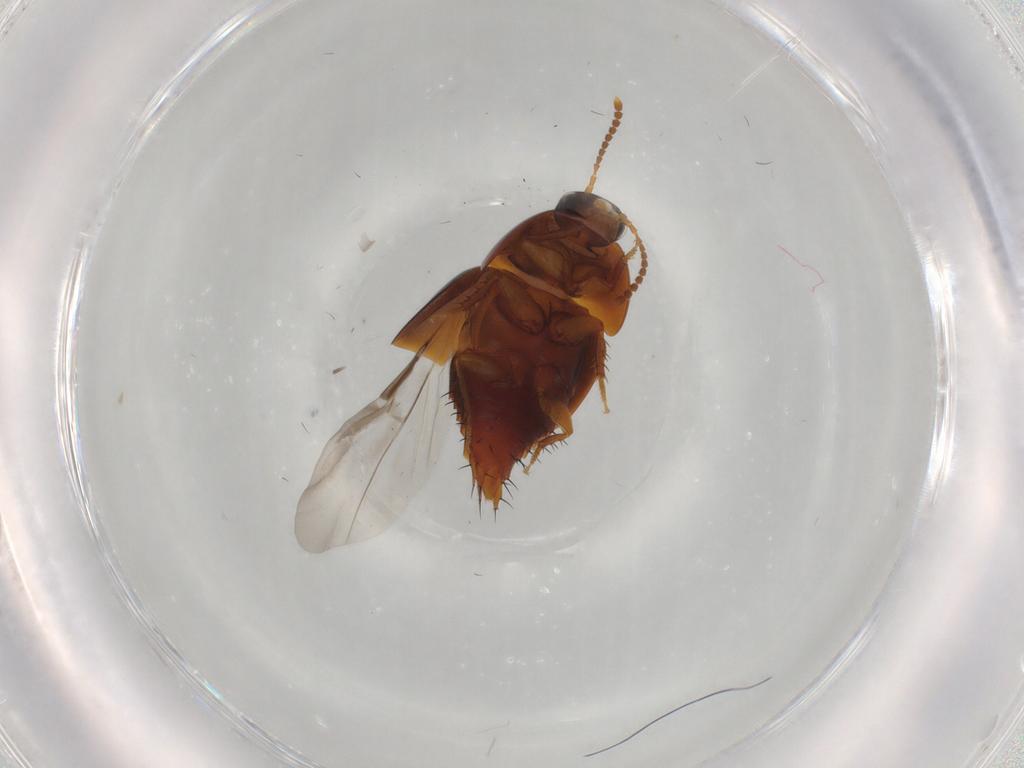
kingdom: Animalia
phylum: Arthropoda
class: Insecta
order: Coleoptera
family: Staphylinidae
